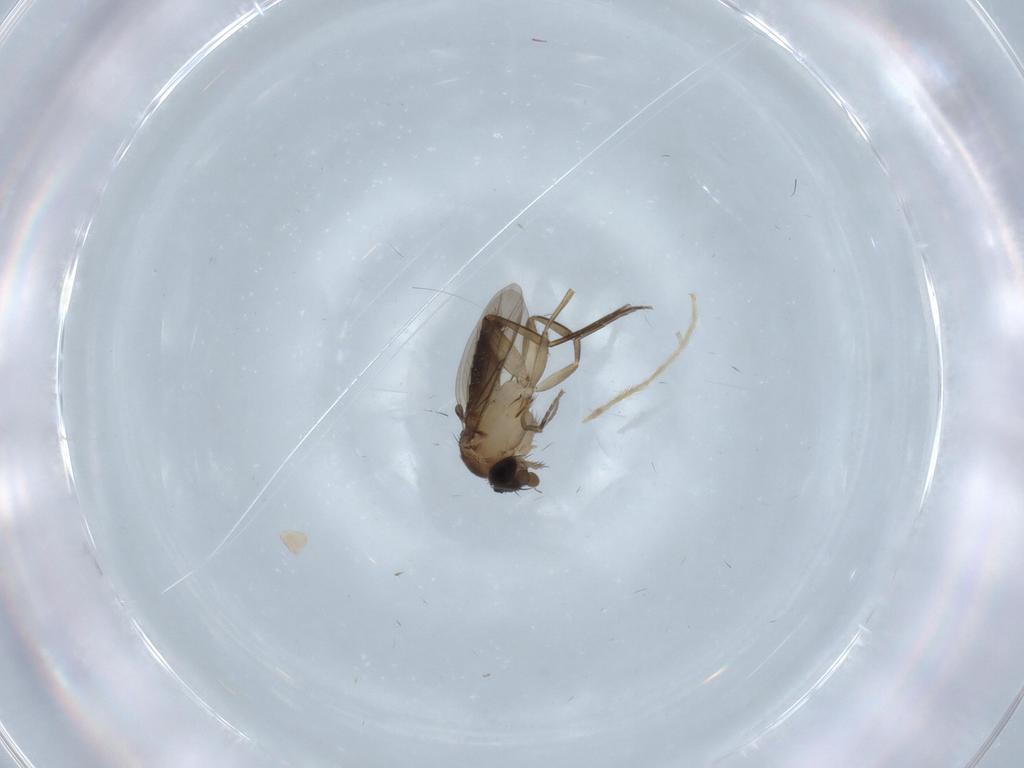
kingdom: Animalia
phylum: Arthropoda
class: Insecta
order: Diptera
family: Phoridae
